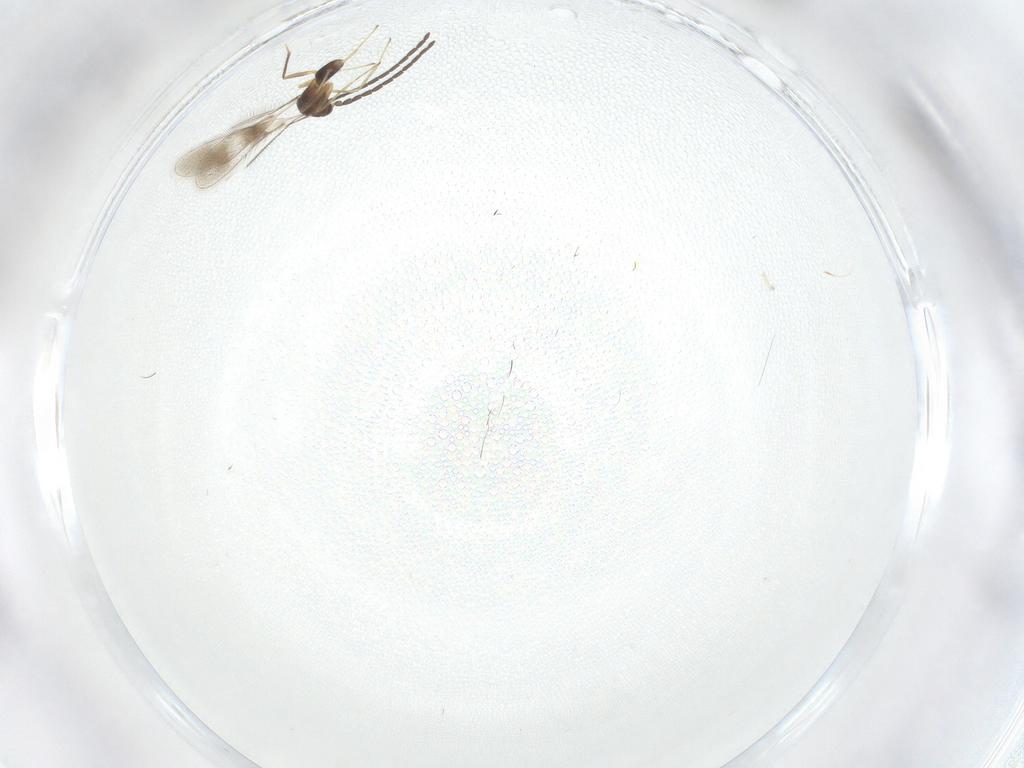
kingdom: Animalia
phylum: Arthropoda
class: Insecta
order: Hymenoptera
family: Mymaridae
